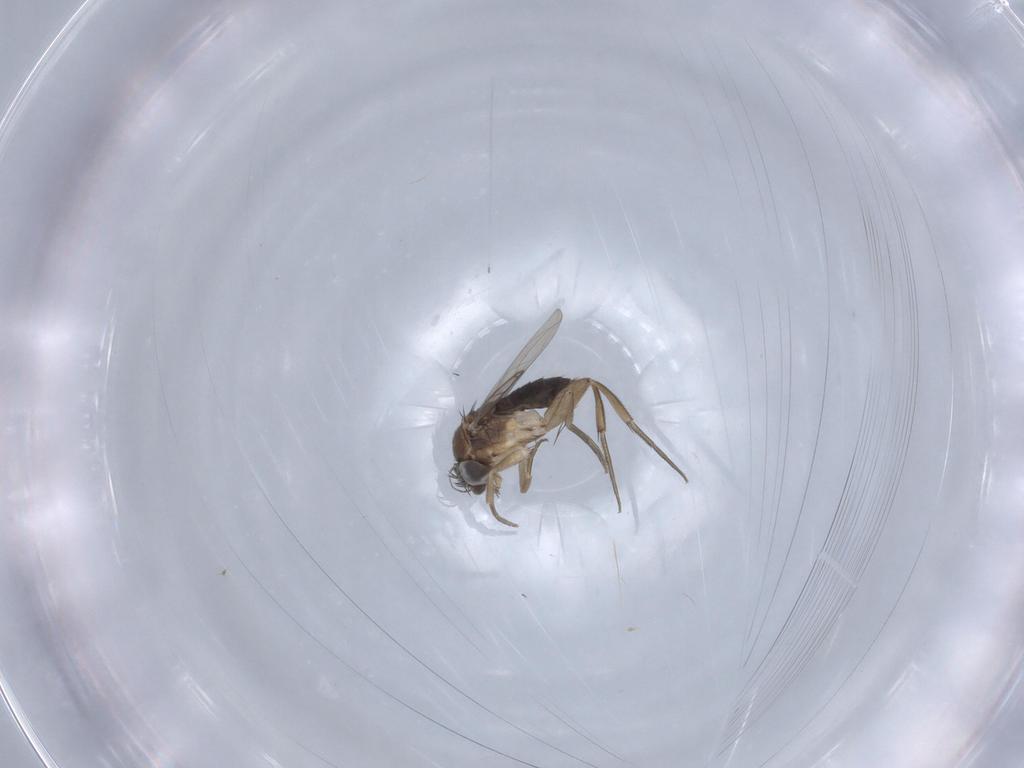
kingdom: Animalia
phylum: Arthropoda
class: Insecta
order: Diptera
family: Phoridae
